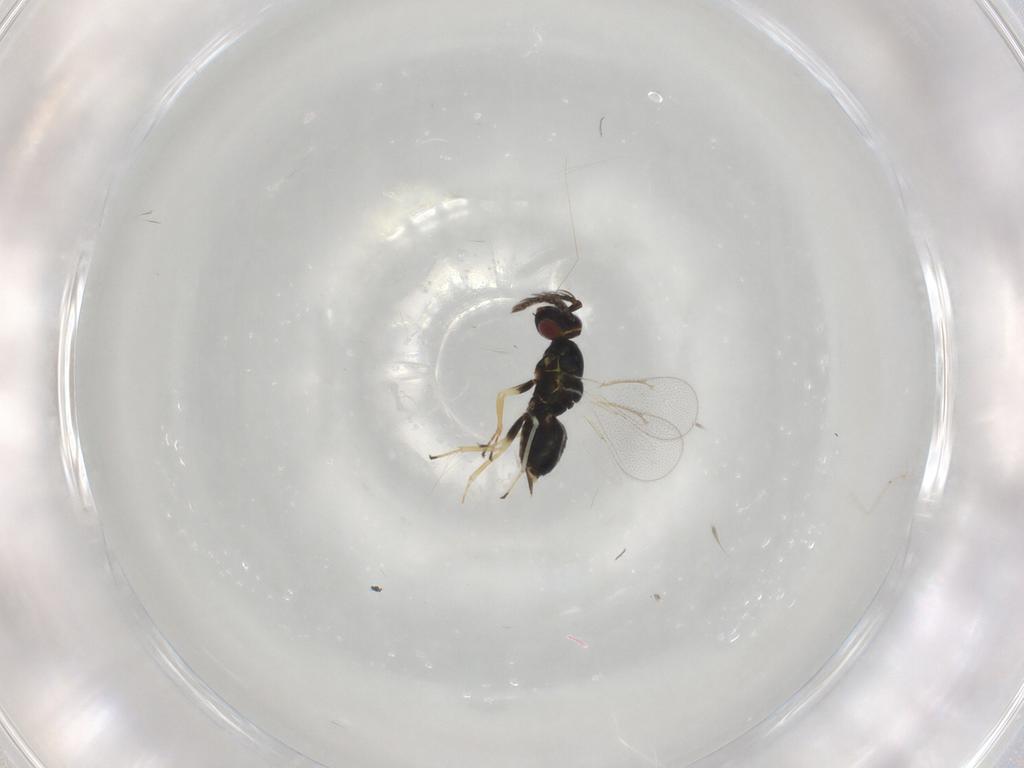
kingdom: Animalia
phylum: Arthropoda
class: Insecta
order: Hymenoptera
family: Eulophidae
